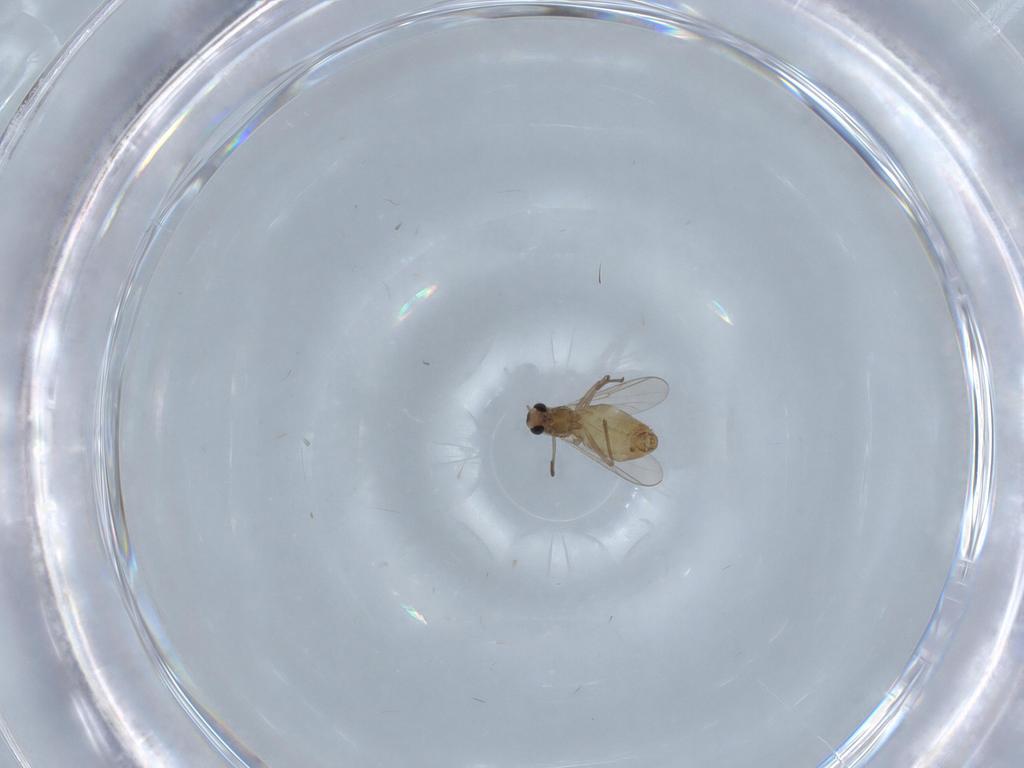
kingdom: Animalia
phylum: Arthropoda
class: Insecta
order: Diptera
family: Chironomidae
